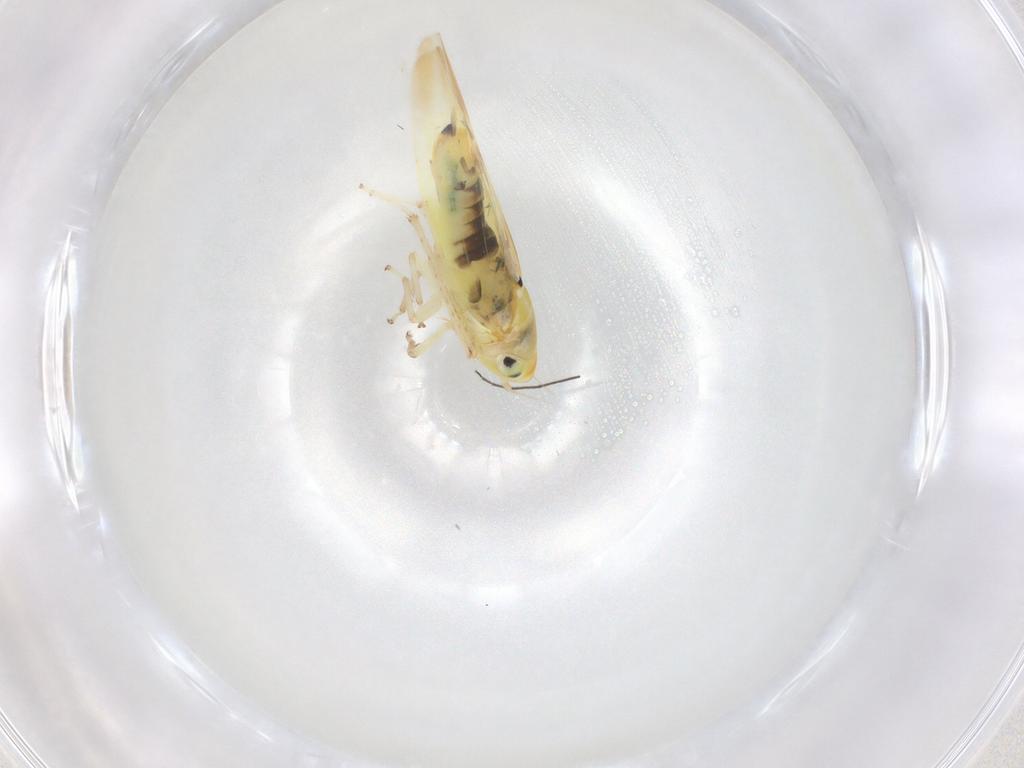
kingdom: Animalia
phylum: Arthropoda
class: Insecta
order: Hemiptera
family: Cicadellidae
